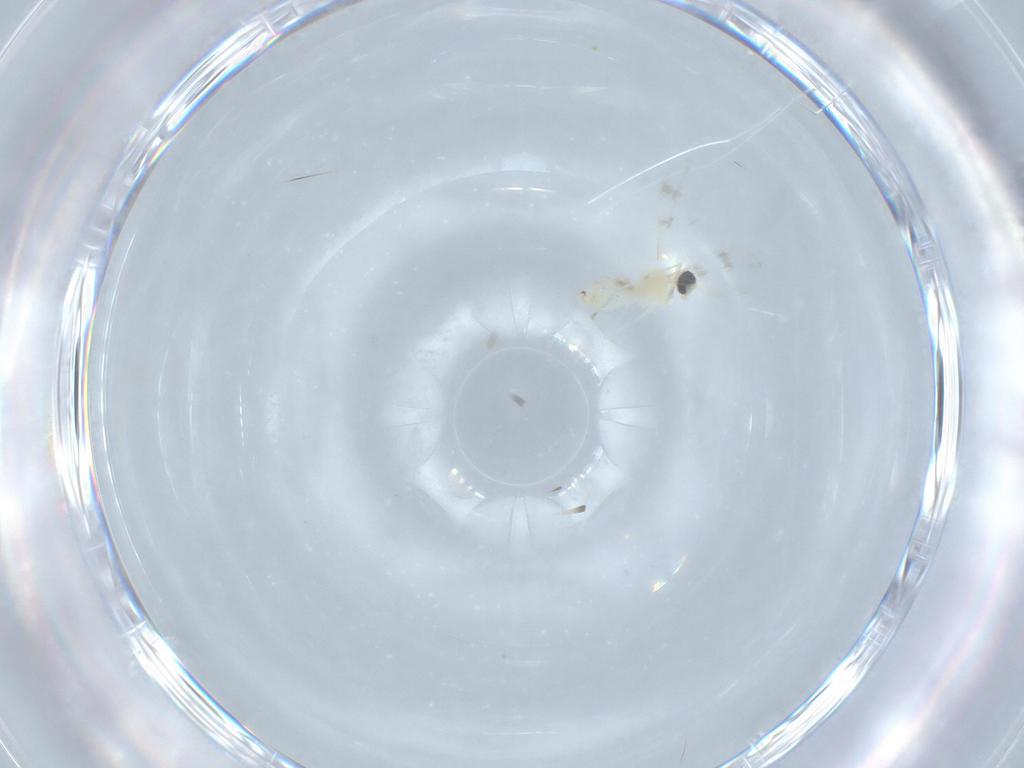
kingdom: Animalia
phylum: Arthropoda
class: Insecta
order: Diptera
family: Cecidomyiidae
